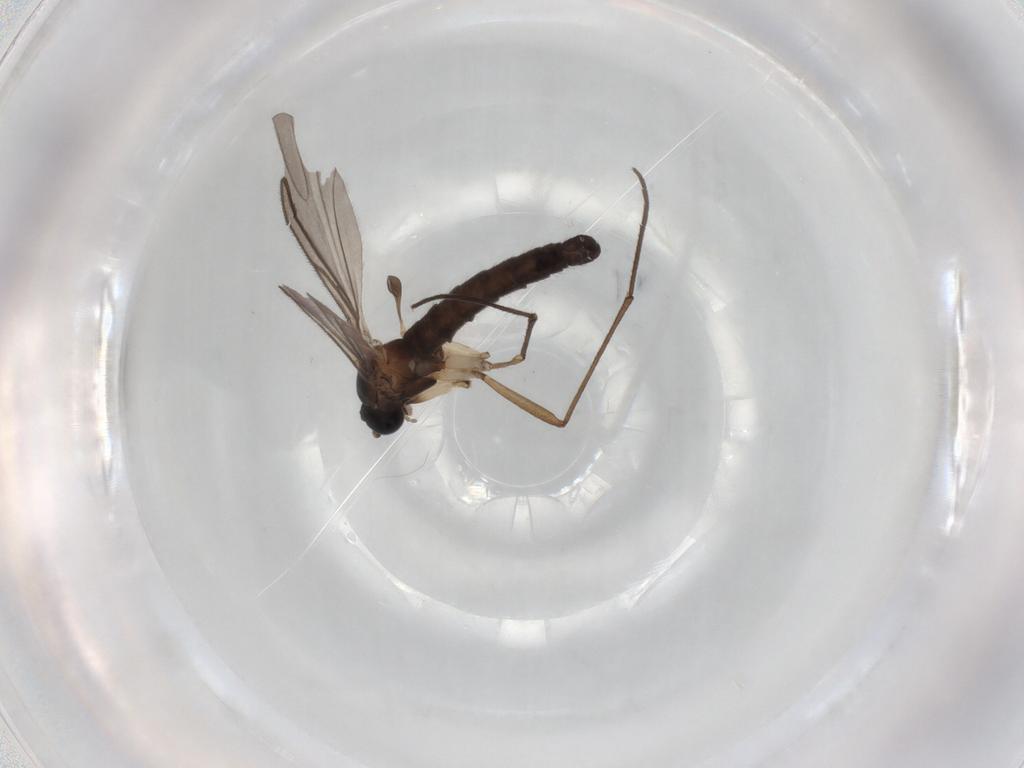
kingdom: Animalia
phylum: Arthropoda
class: Insecta
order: Diptera
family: Sciaridae
